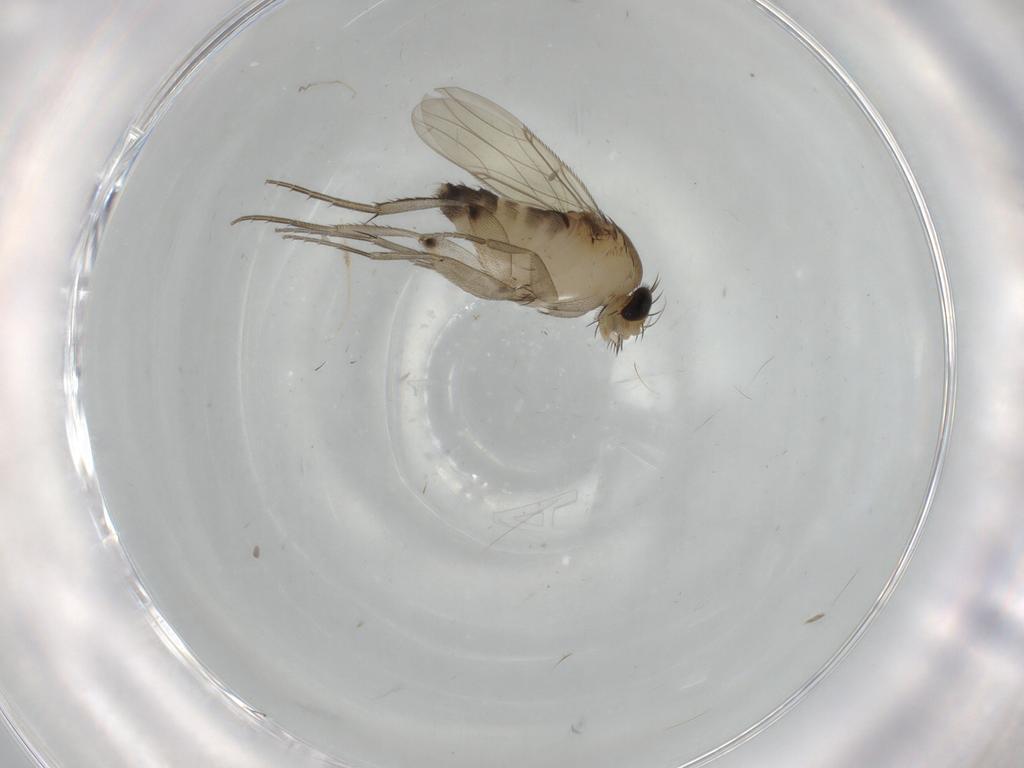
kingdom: Animalia
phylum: Arthropoda
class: Insecta
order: Diptera
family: Phoridae
